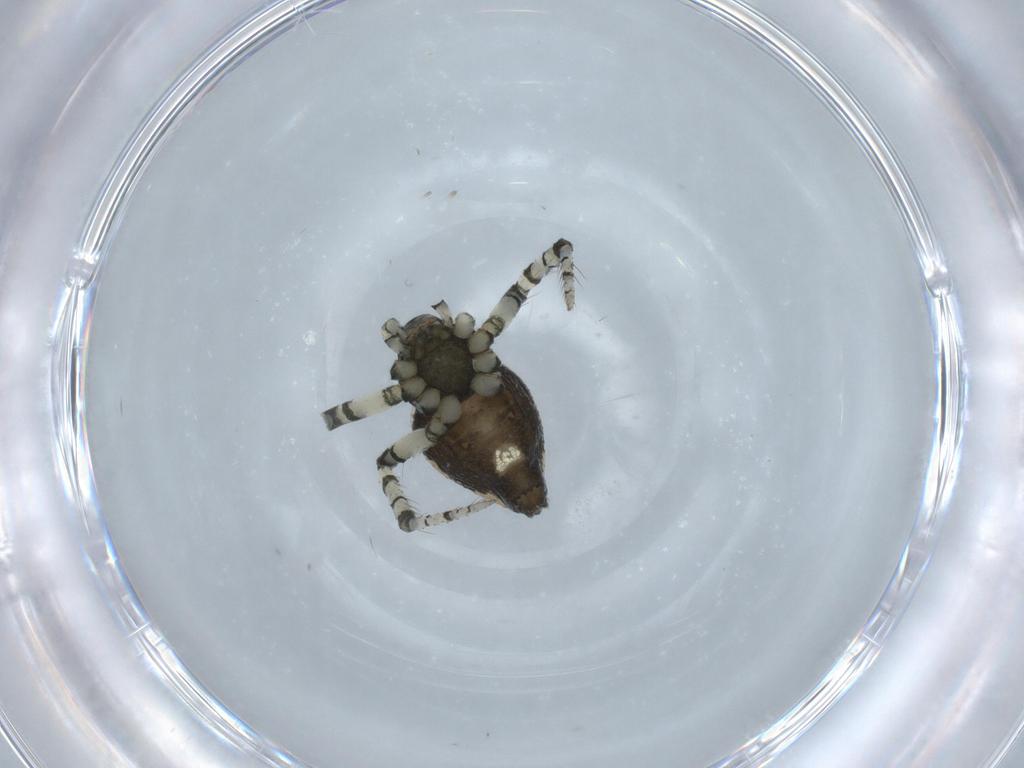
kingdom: Animalia
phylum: Arthropoda
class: Arachnida
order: Araneae
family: Theridiidae
